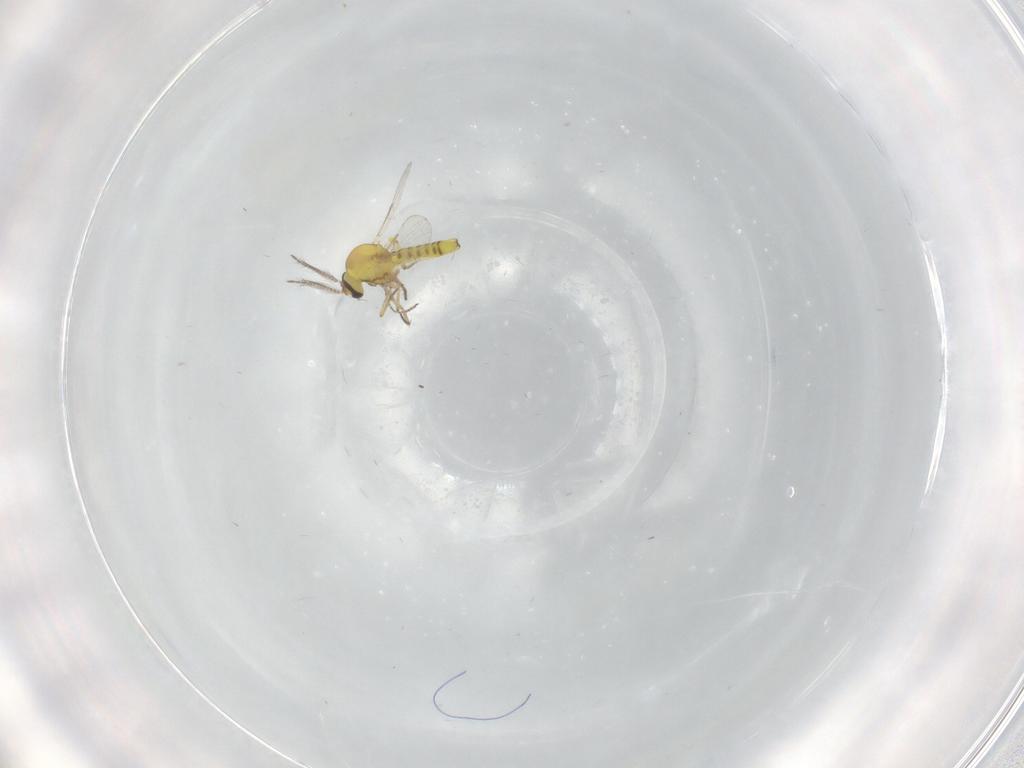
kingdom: Animalia
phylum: Arthropoda
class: Insecta
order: Diptera
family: Ceratopogonidae
